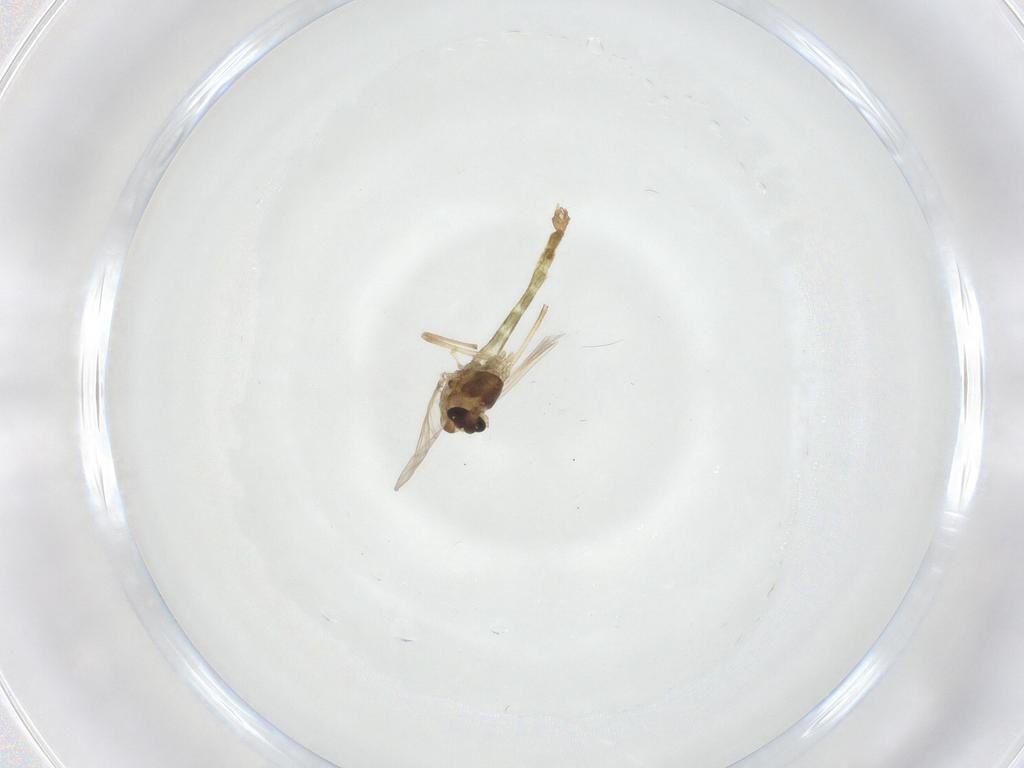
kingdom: Animalia
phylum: Arthropoda
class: Insecta
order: Diptera
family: Chironomidae
